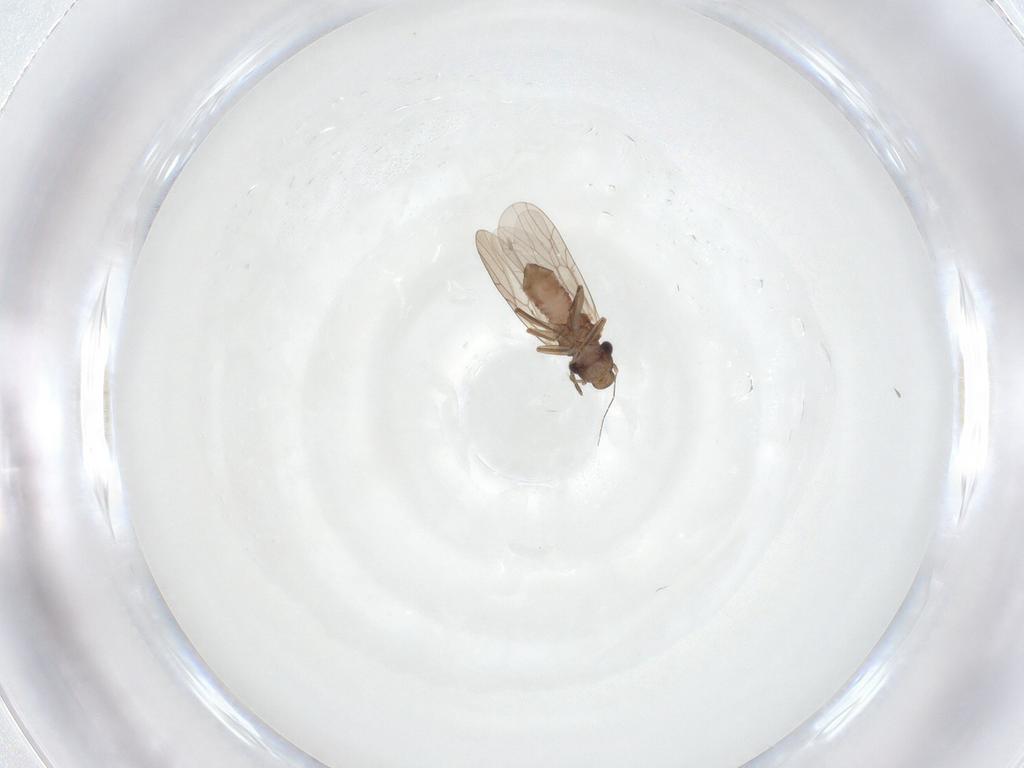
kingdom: Animalia
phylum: Arthropoda
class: Insecta
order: Psocodea
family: Lepidopsocidae
